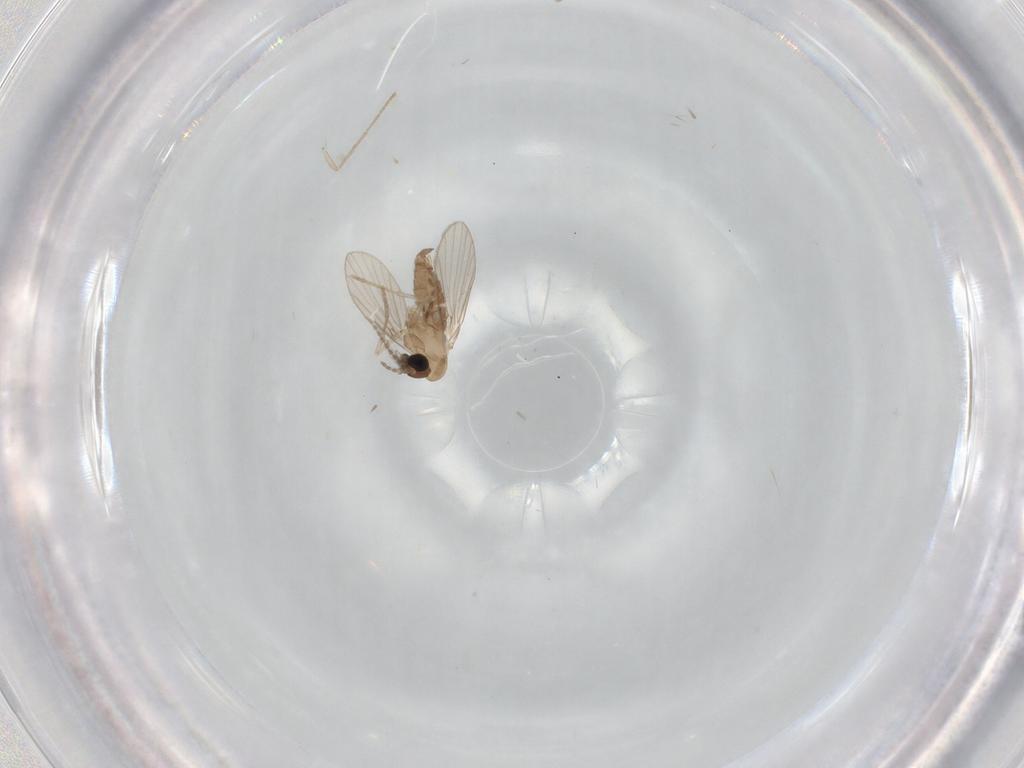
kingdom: Animalia
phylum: Arthropoda
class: Insecta
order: Diptera
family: Psychodidae
